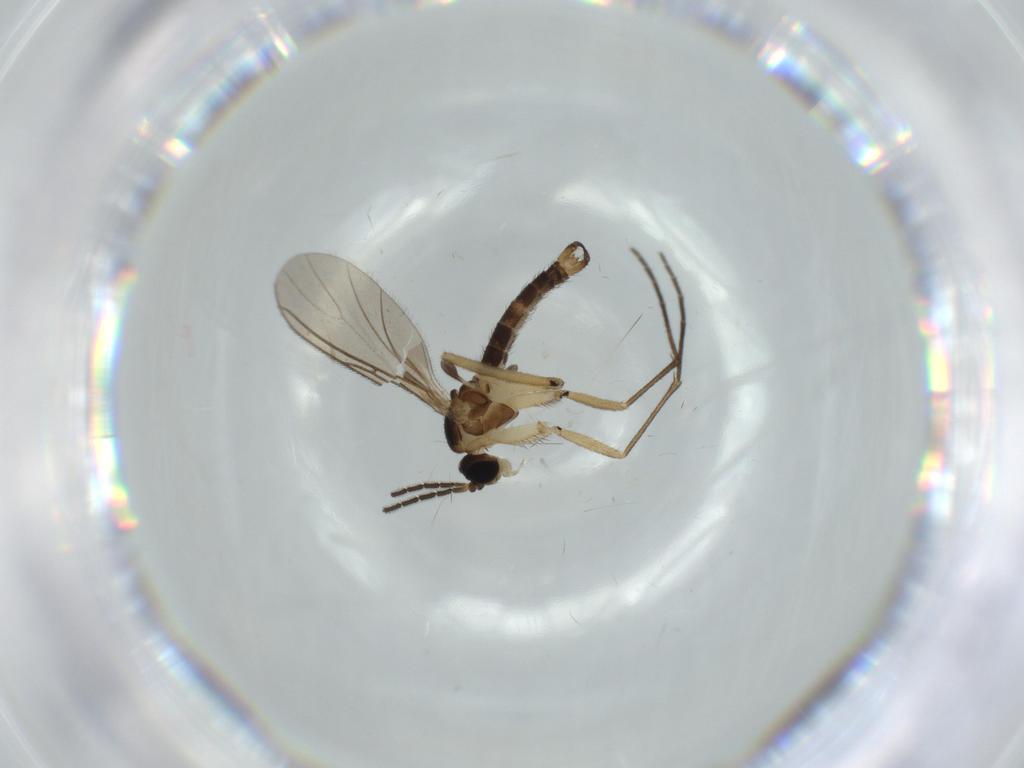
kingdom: Animalia
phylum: Arthropoda
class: Insecta
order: Diptera
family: Sciaridae
